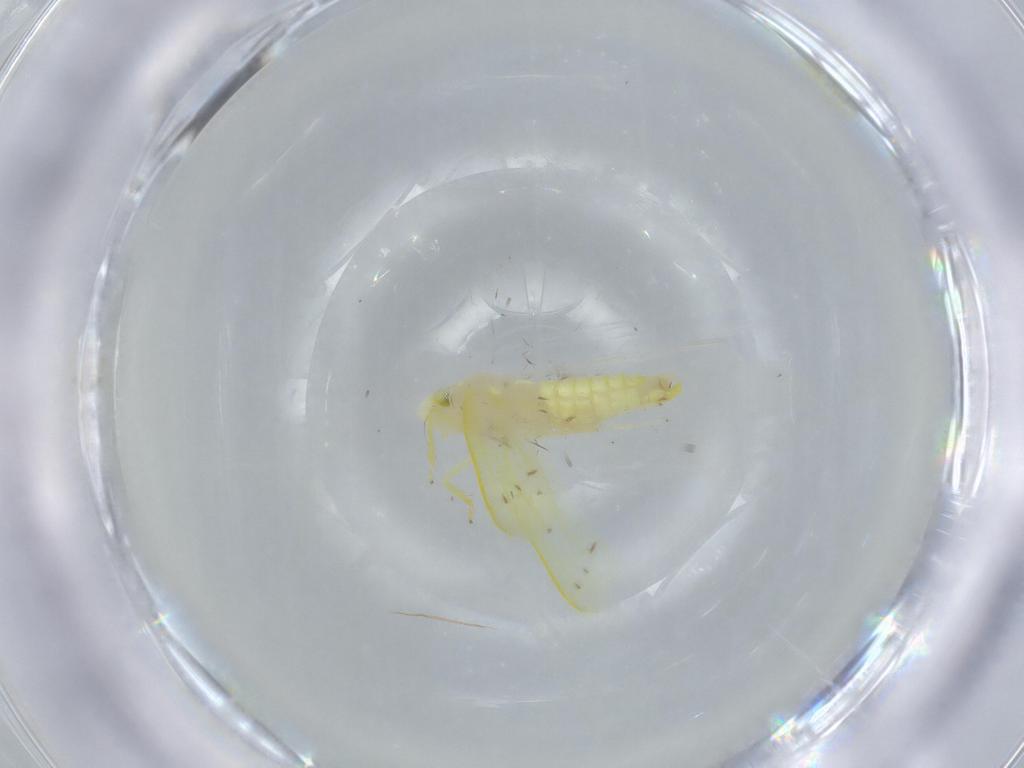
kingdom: Animalia
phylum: Arthropoda
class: Insecta
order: Hemiptera
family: Cicadellidae
